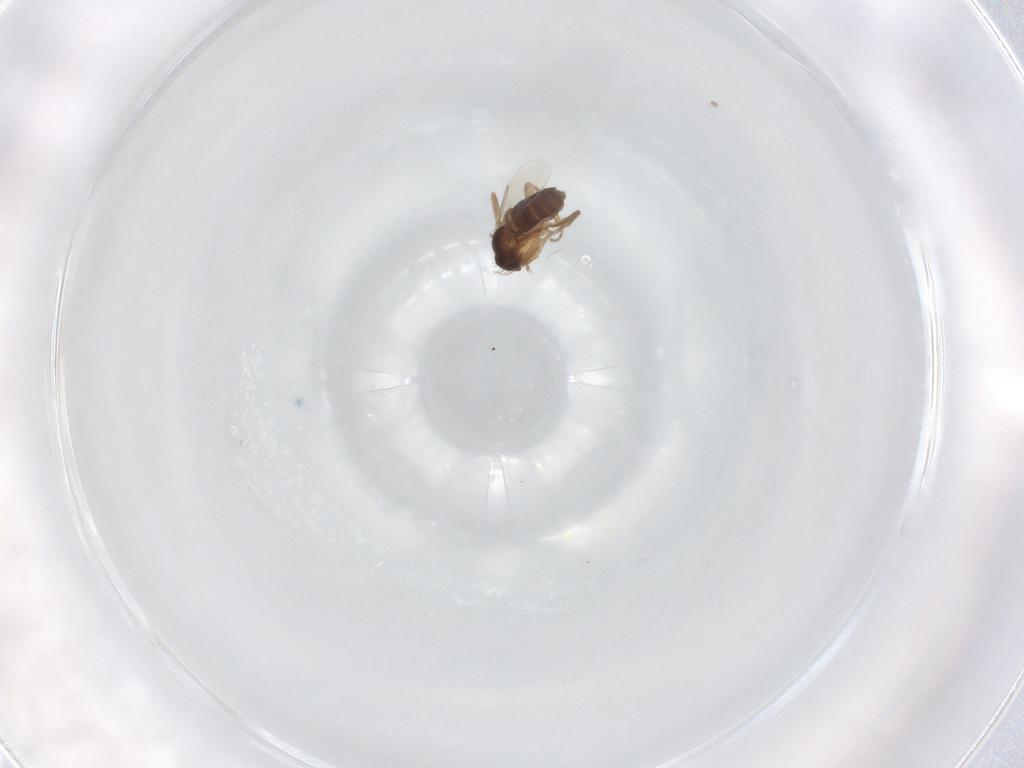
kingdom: Animalia
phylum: Arthropoda
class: Insecta
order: Diptera
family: Phoridae
